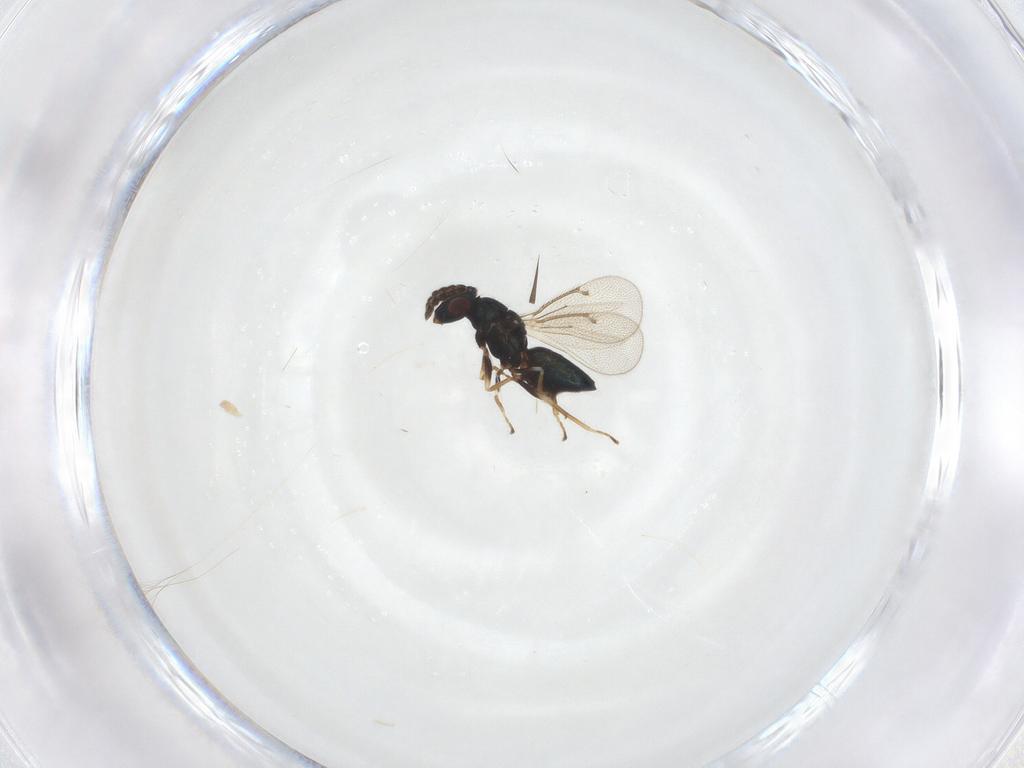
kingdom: Animalia
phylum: Arthropoda
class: Insecta
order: Hymenoptera
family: Eulophidae
